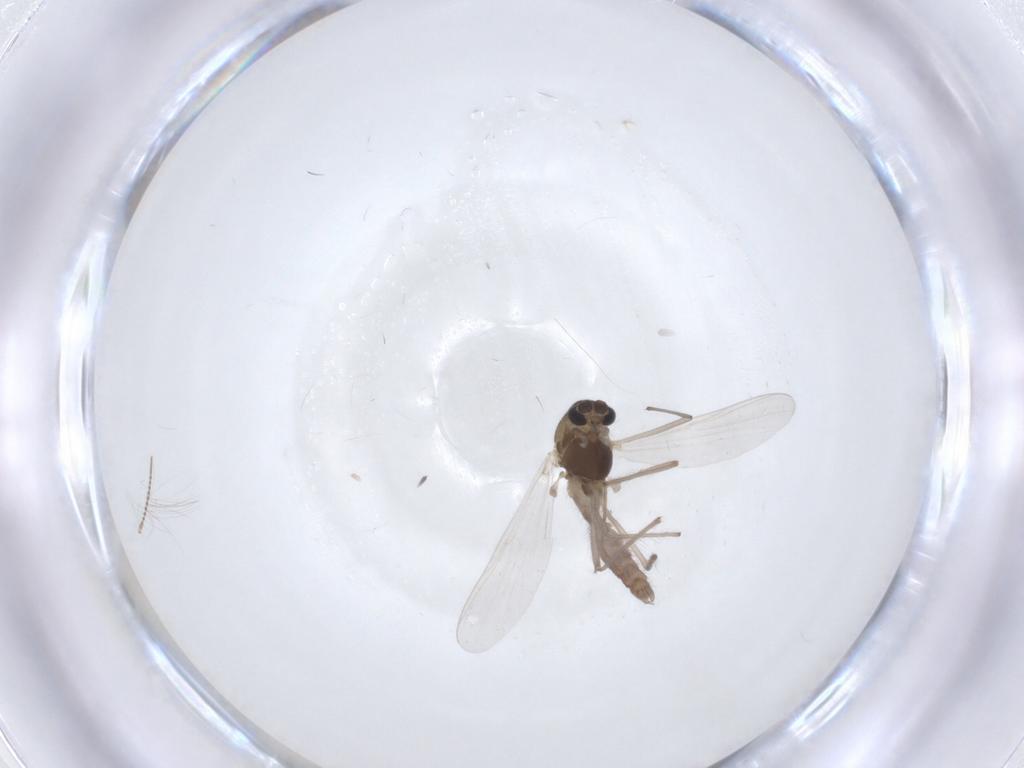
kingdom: Animalia
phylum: Arthropoda
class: Insecta
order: Diptera
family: Chironomidae
